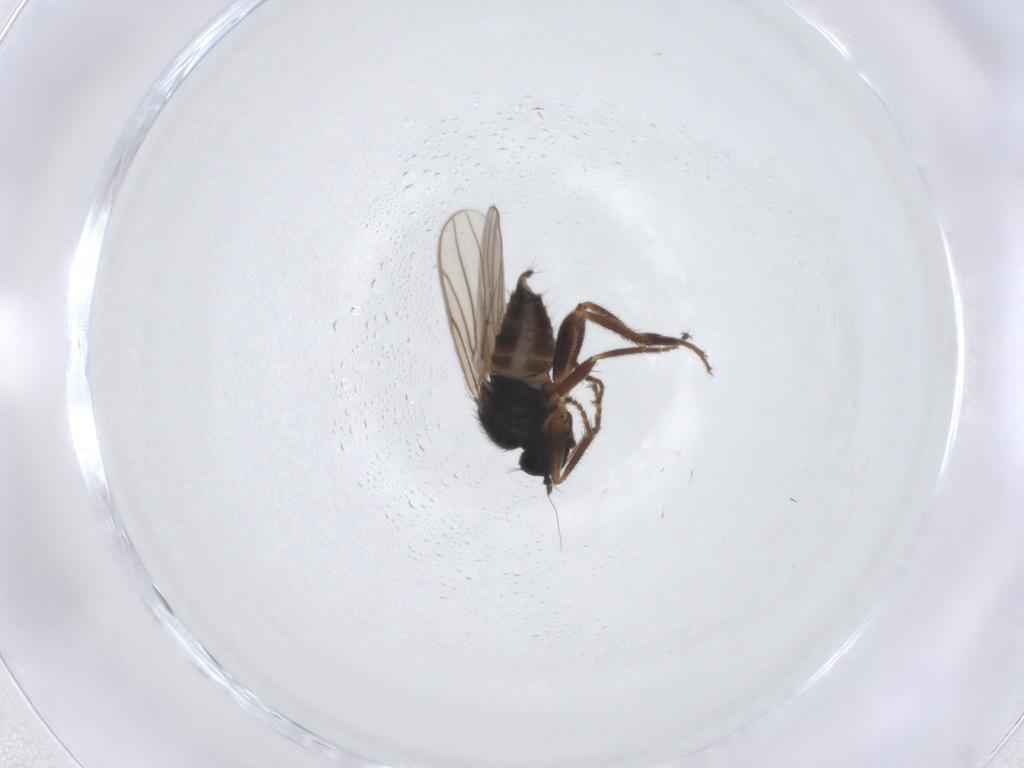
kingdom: Animalia
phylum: Arthropoda
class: Insecta
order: Diptera
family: Hybotidae
